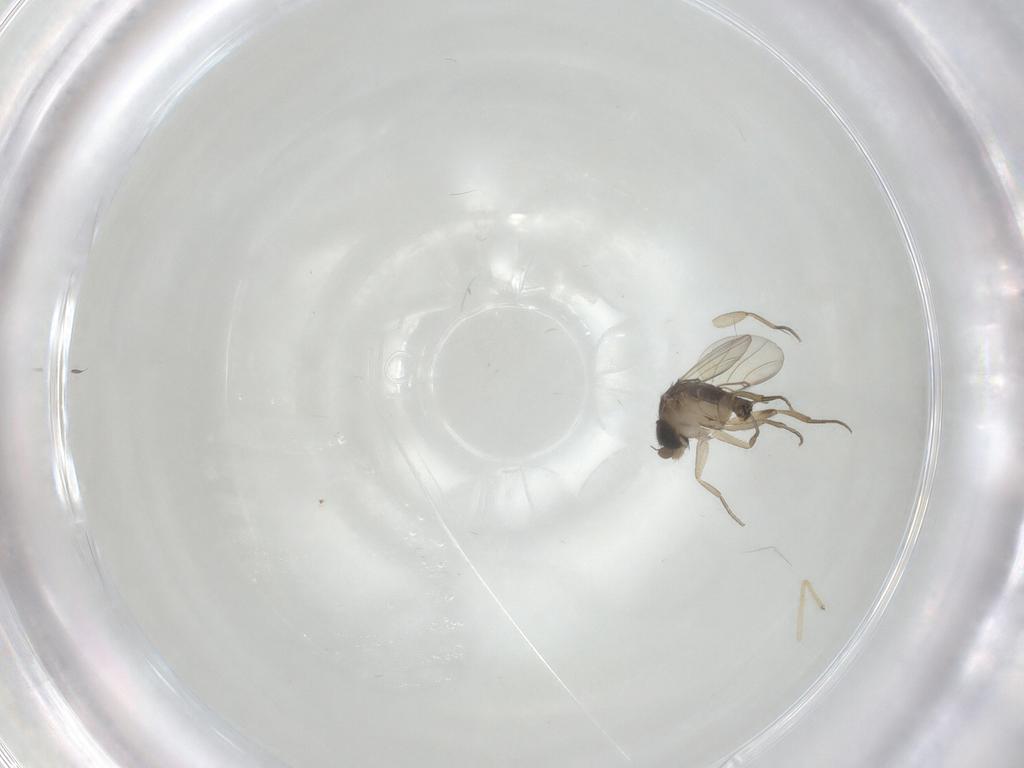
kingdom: Animalia
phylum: Arthropoda
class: Insecta
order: Diptera
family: Phoridae
